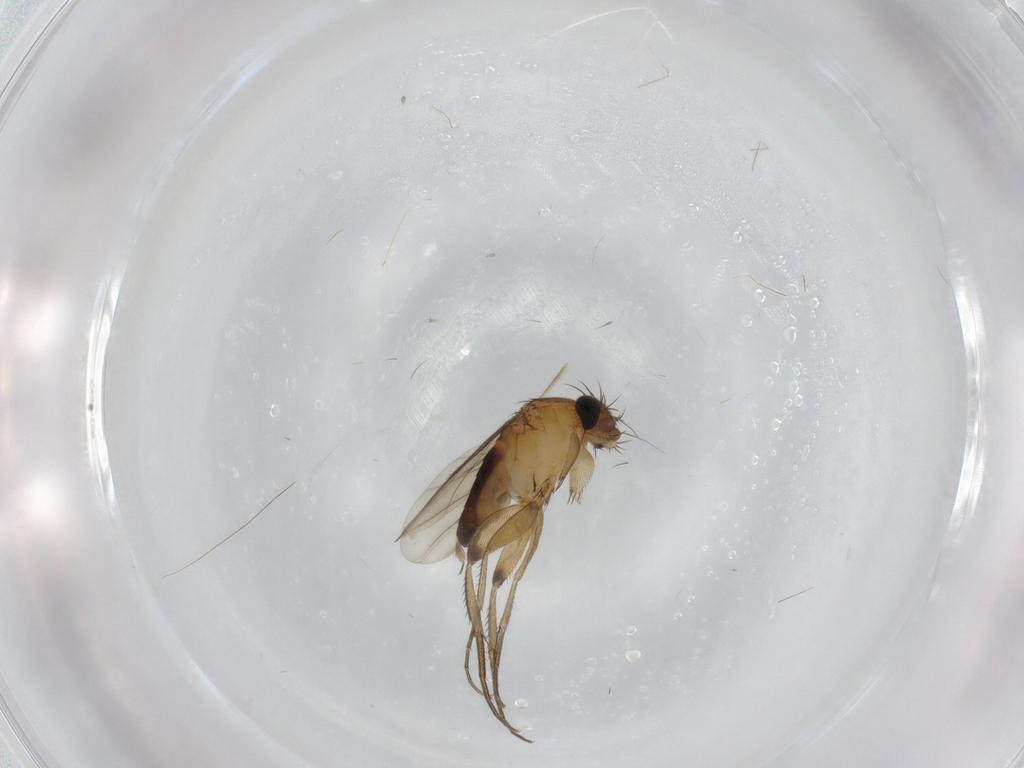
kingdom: Animalia
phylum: Arthropoda
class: Insecta
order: Diptera
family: Phoridae
